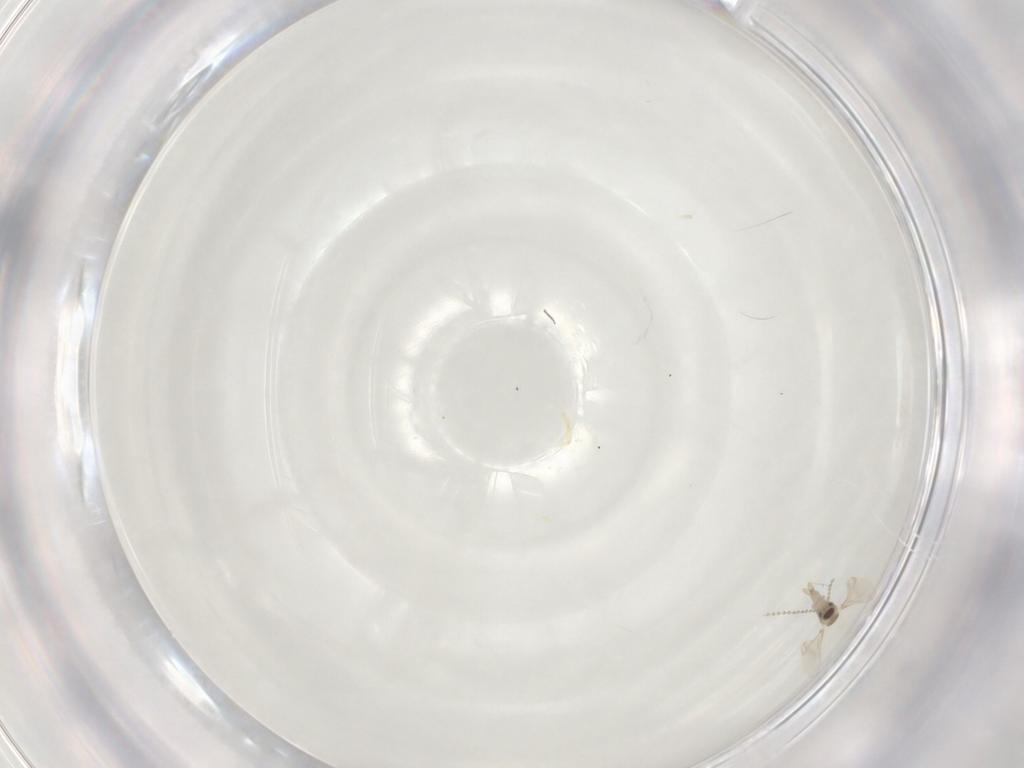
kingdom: Animalia
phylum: Arthropoda
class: Insecta
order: Diptera
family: Cecidomyiidae
